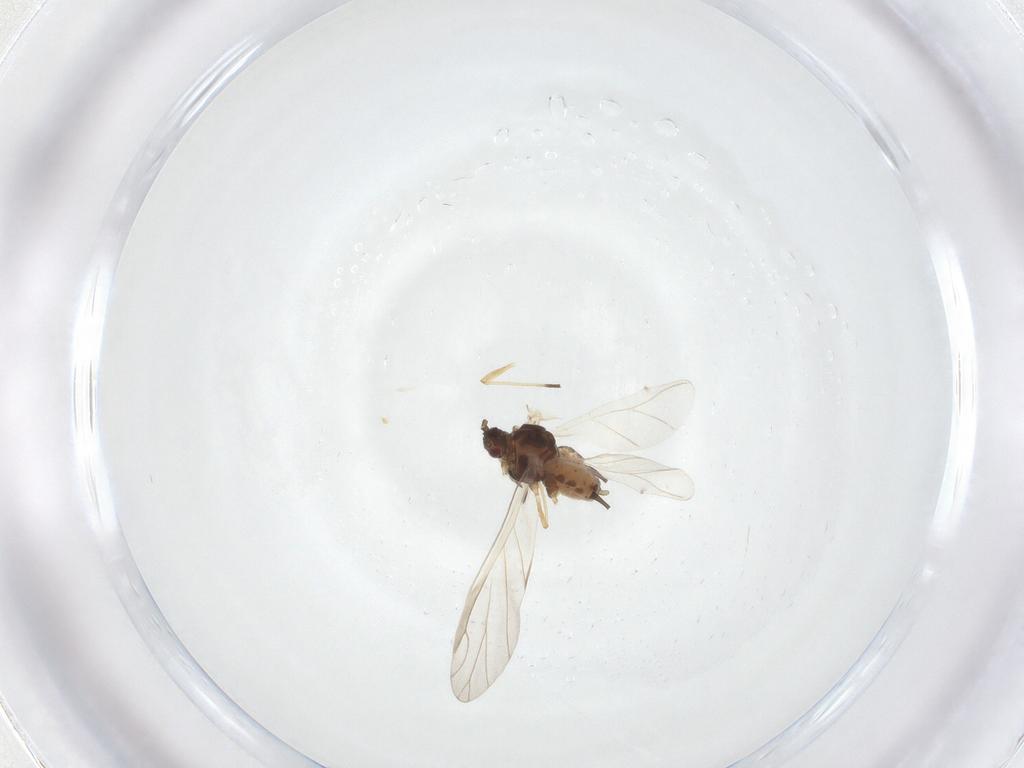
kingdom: Animalia
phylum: Arthropoda
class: Insecta
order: Hemiptera
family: Aphididae
